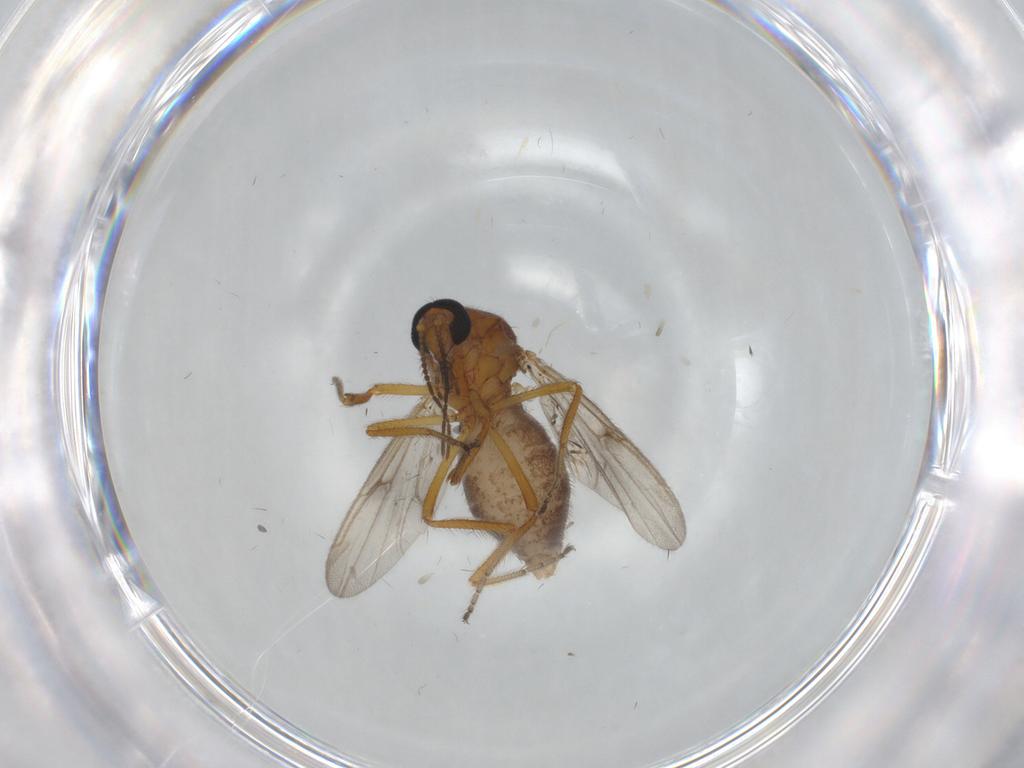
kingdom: Animalia
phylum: Arthropoda
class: Insecta
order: Diptera
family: Ceratopogonidae
